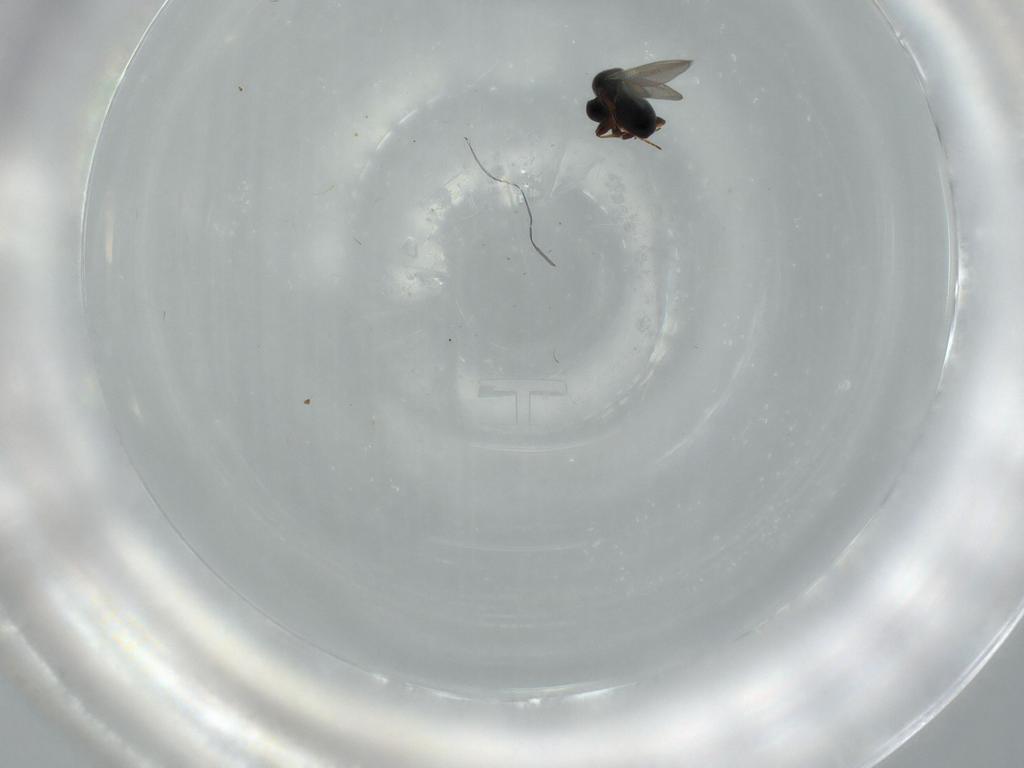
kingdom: Animalia
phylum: Arthropoda
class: Insecta
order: Hymenoptera
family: Platygastridae
